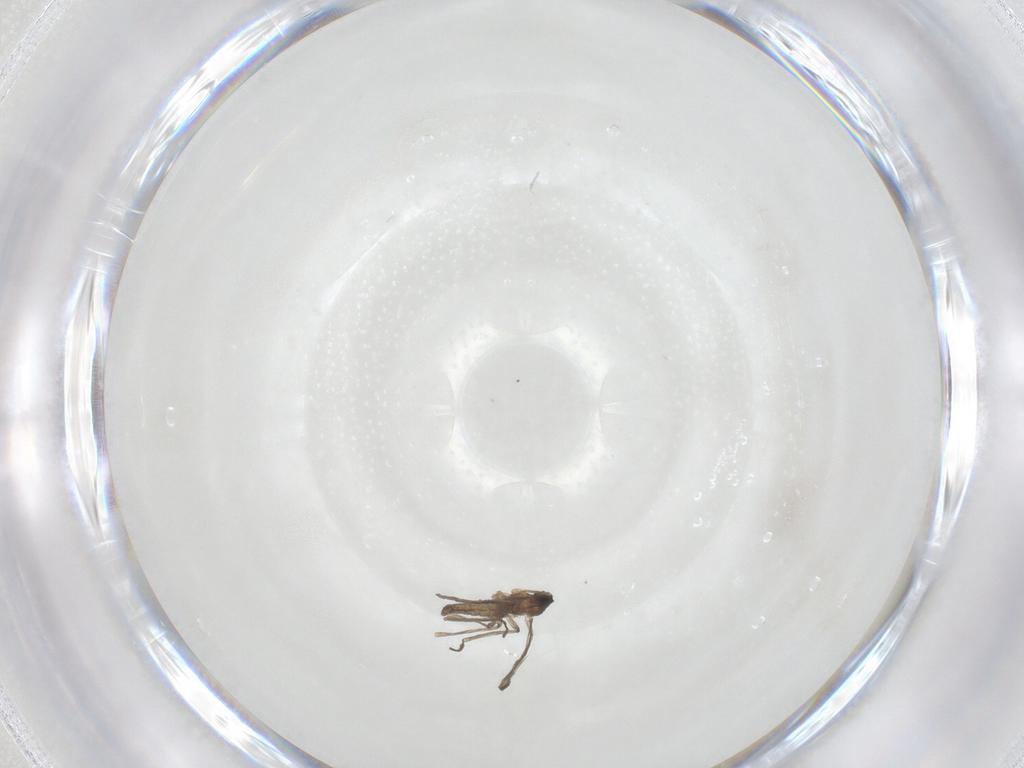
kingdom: Animalia
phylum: Arthropoda
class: Insecta
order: Diptera
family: Cecidomyiidae
